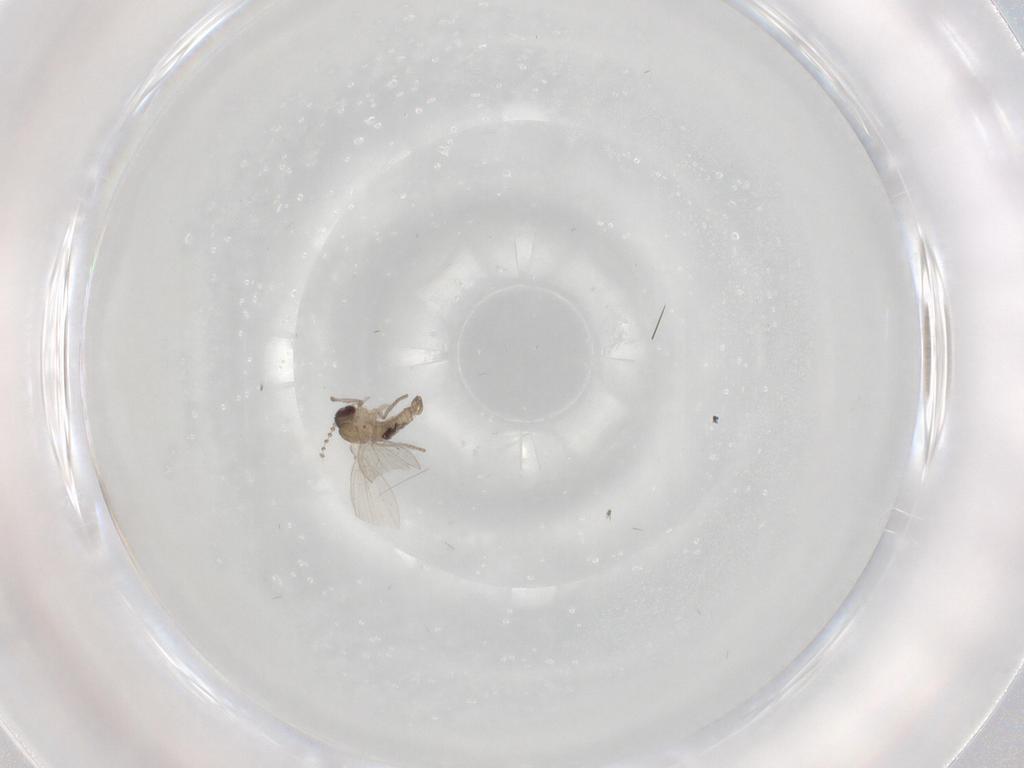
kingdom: Animalia
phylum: Arthropoda
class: Insecta
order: Diptera
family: Psychodidae
